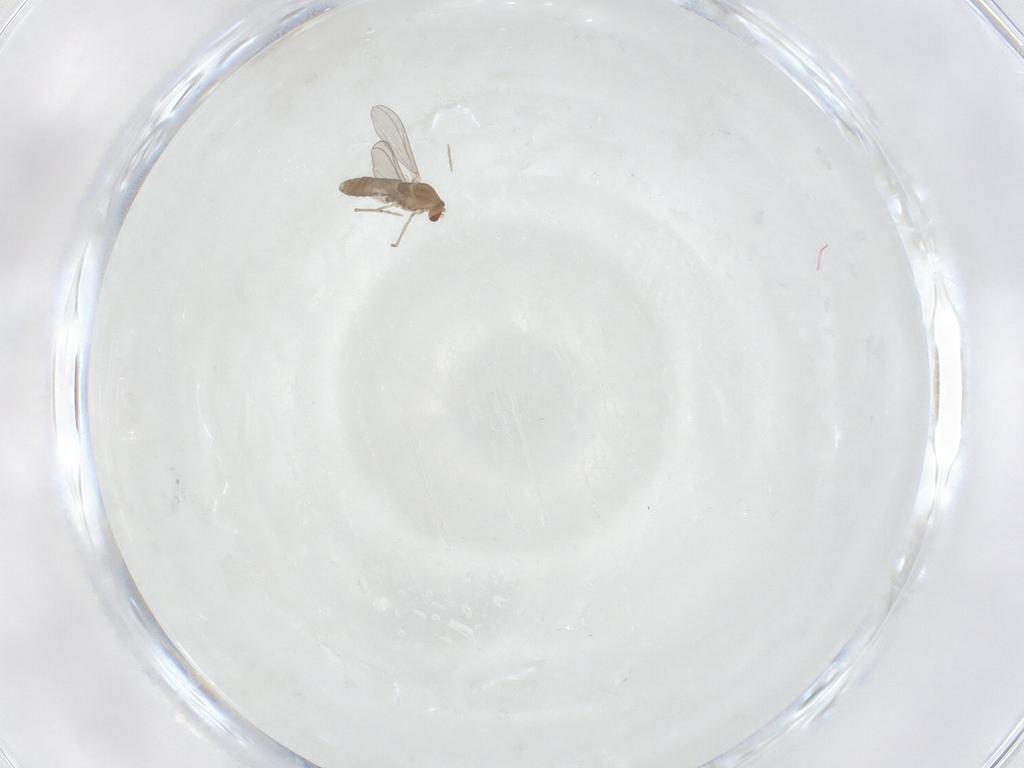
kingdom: Animalia
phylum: Arthropoda
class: Insecta
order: Diptera
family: Chironomidae
